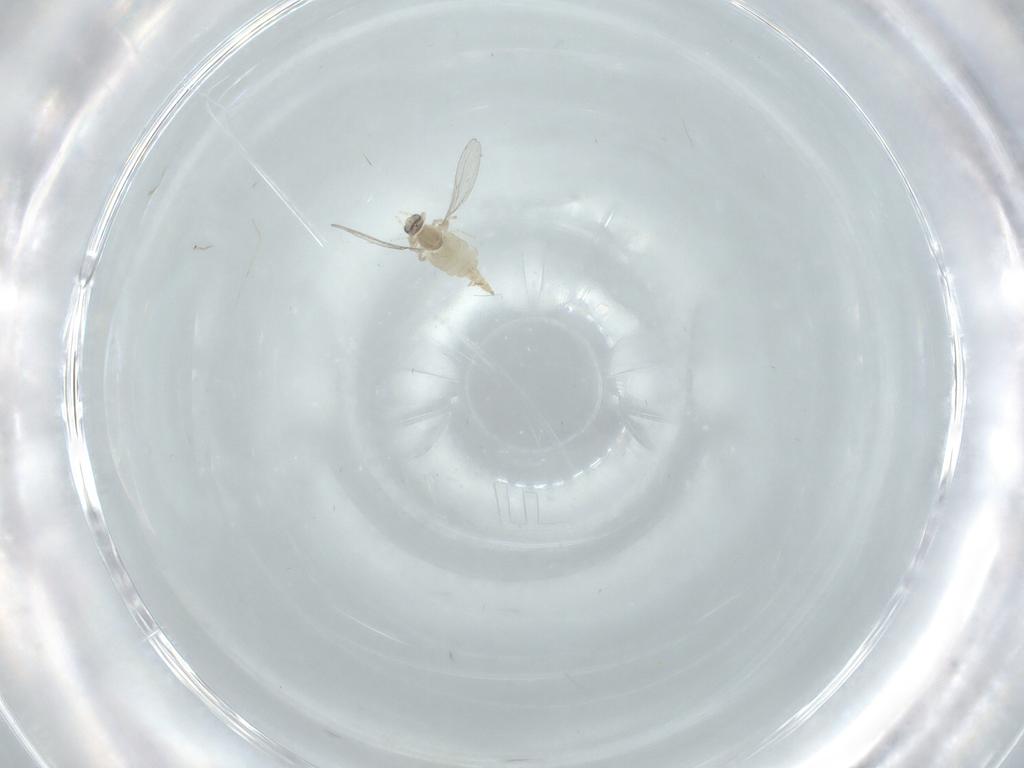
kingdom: Animalia
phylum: Arthropoda
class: Insecta
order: Diptera
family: Cecidomyiidae
